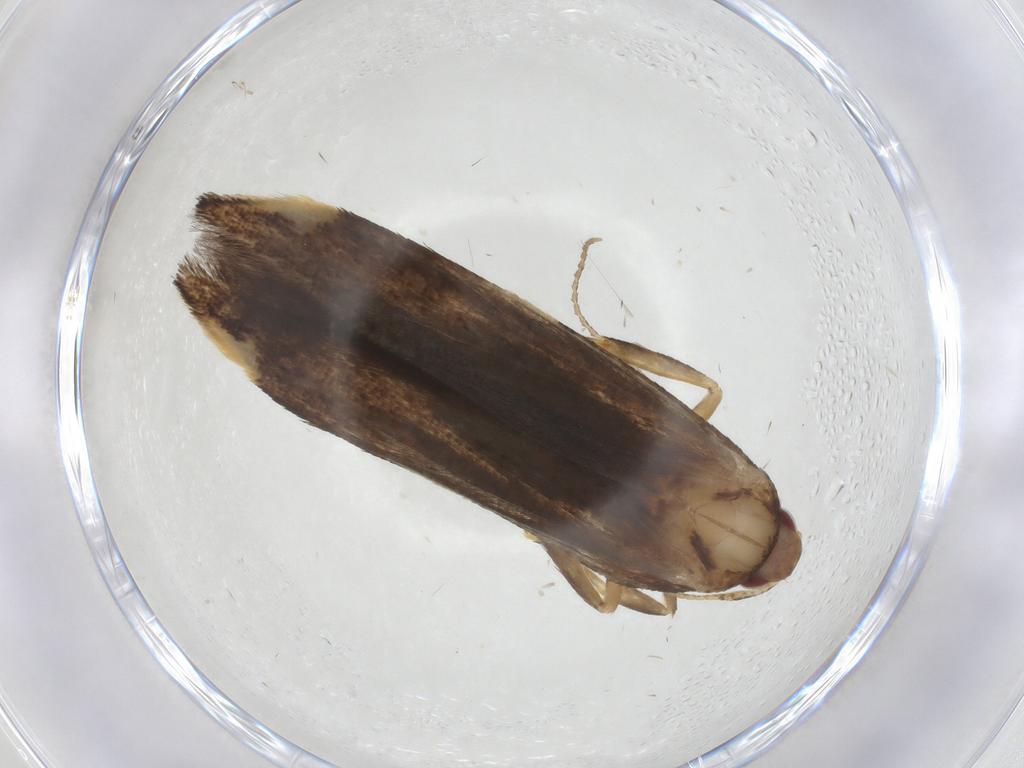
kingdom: Animalia
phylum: Arthropoda
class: Insecta
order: Lepidoptera
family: Cosmopterigidae
